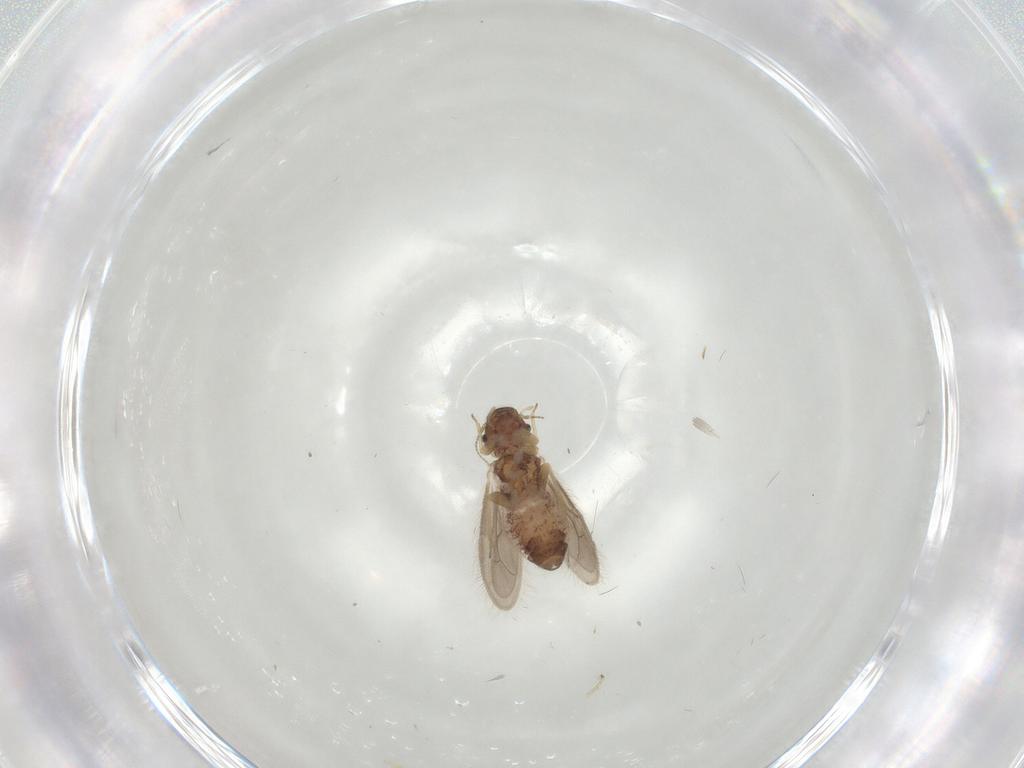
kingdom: Animalia
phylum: Arthropoda
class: Insecta
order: Psocodea
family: Archipsocidae
